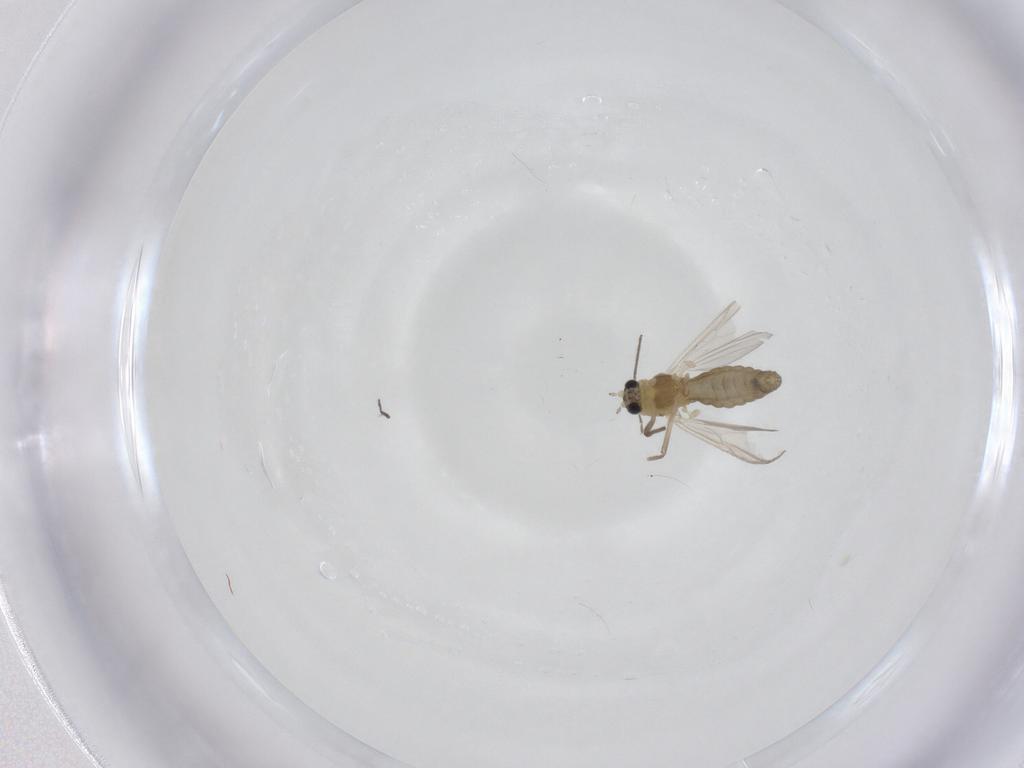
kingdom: Animalia
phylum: Arthropoda
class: Insecta
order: Diptera
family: Chironomidae
